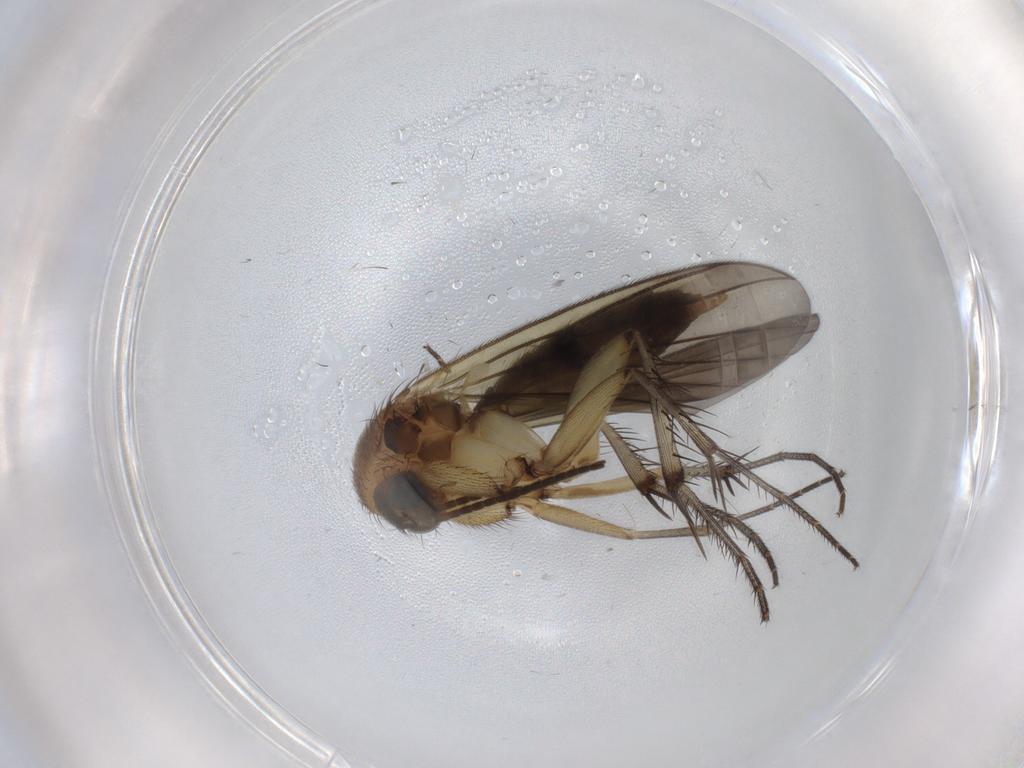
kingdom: Animalia
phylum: Arthropoda
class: Insecta
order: Diptera
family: Mycetophilidae
